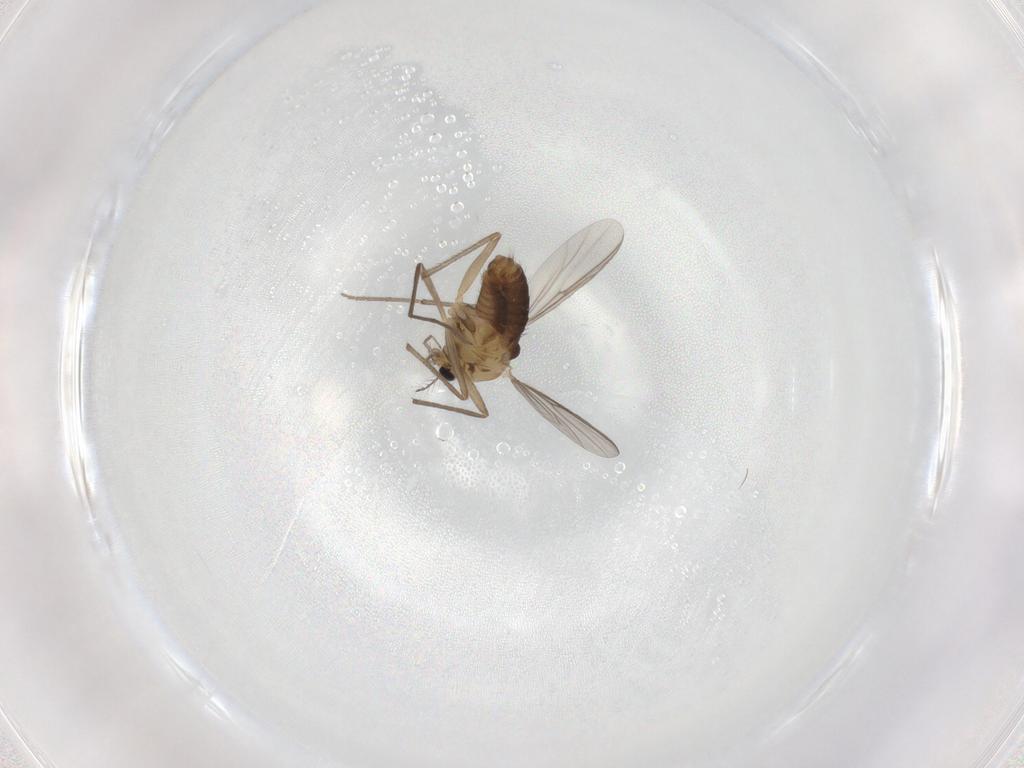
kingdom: Animalia
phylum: Arthropoda
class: Insecta
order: Diptera
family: Chironomidae
